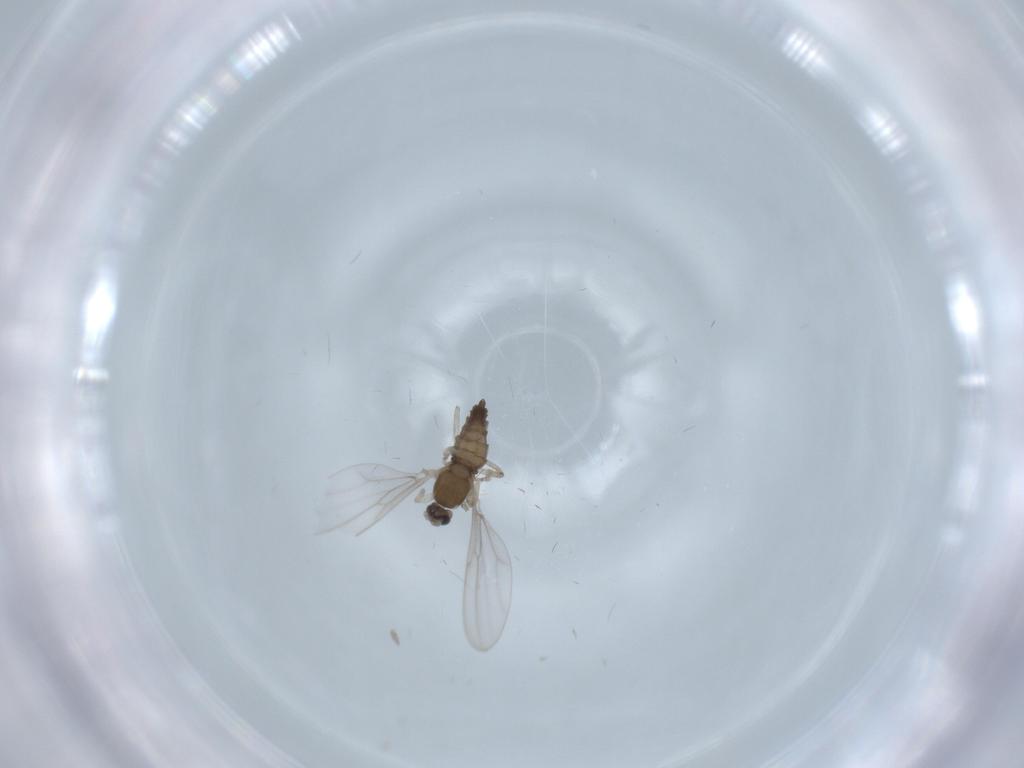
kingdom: Animalia
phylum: Arthropoda
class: Insecta
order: Diptera
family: Cecidomyiidae
